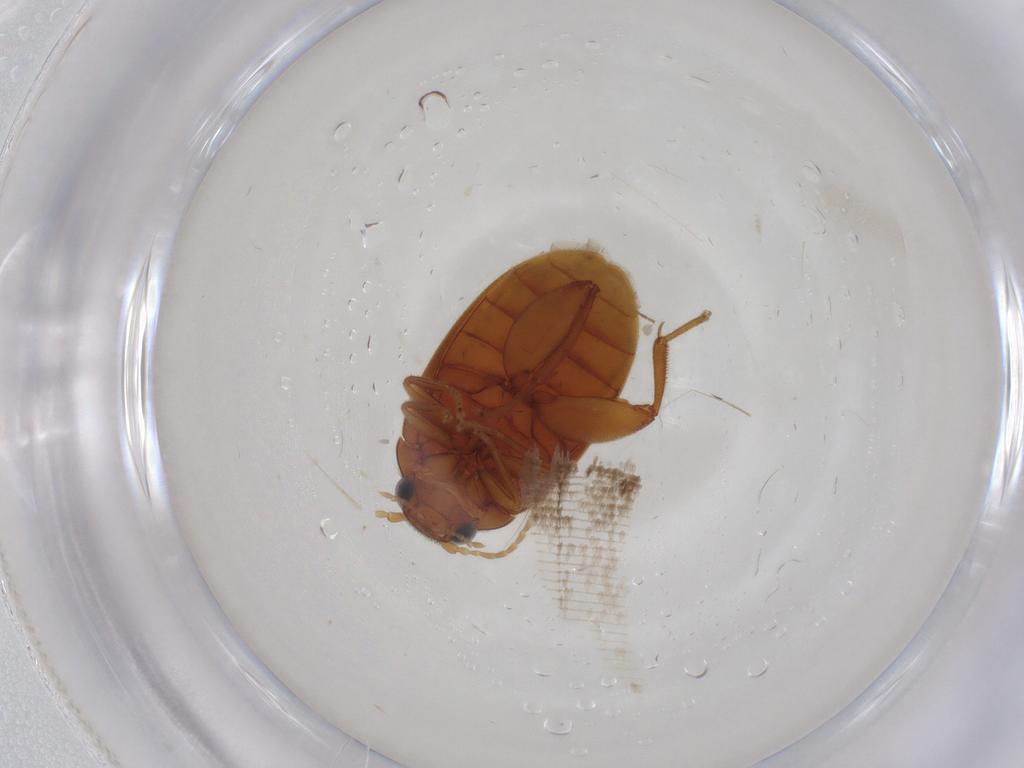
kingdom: Animalia
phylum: Arthropoda
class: Insecta
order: Coleoptera
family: Scirtidae
